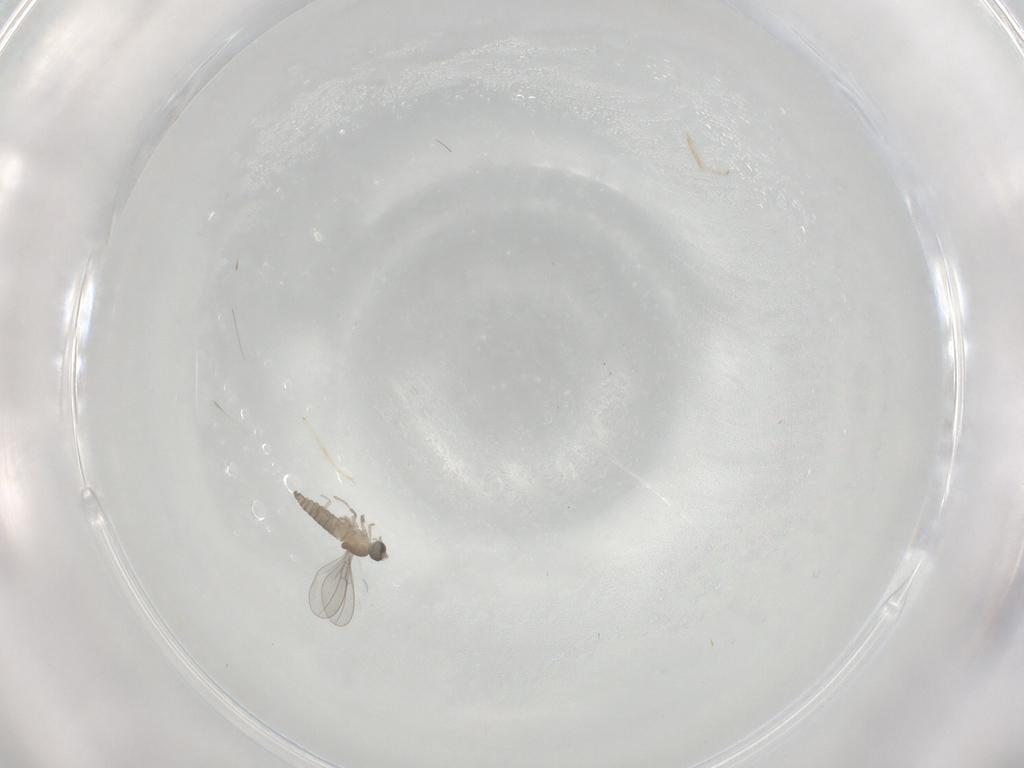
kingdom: Animalia
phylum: Arthropoda
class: Insecta
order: Diptera
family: Cecidomyiidae
